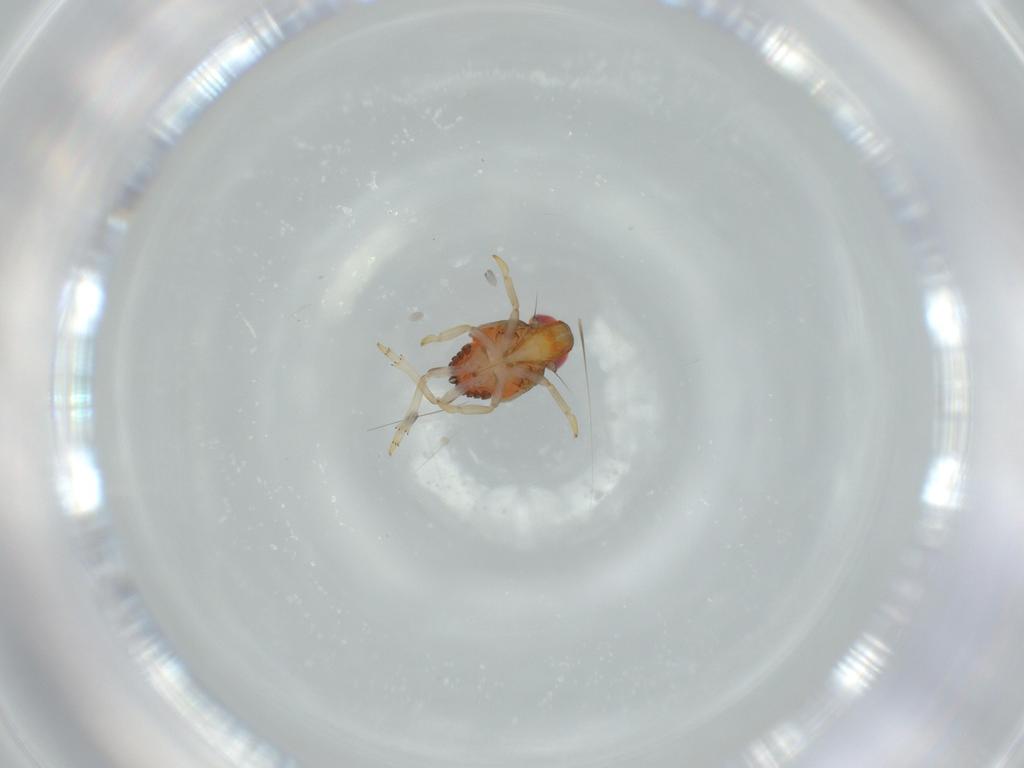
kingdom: Animalia
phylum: Arthropoda
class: Insecta
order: Hemiptera
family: Issidae
